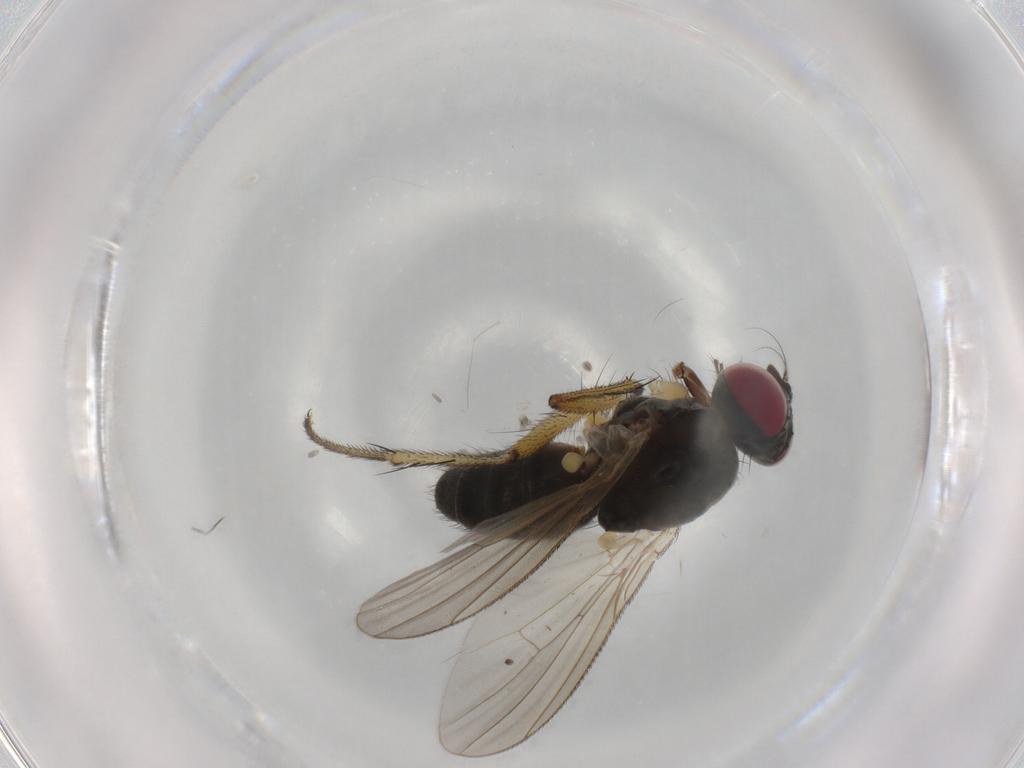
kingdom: Animalia
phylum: Arthropoda
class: Insecta
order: Diptera
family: Muscidae
